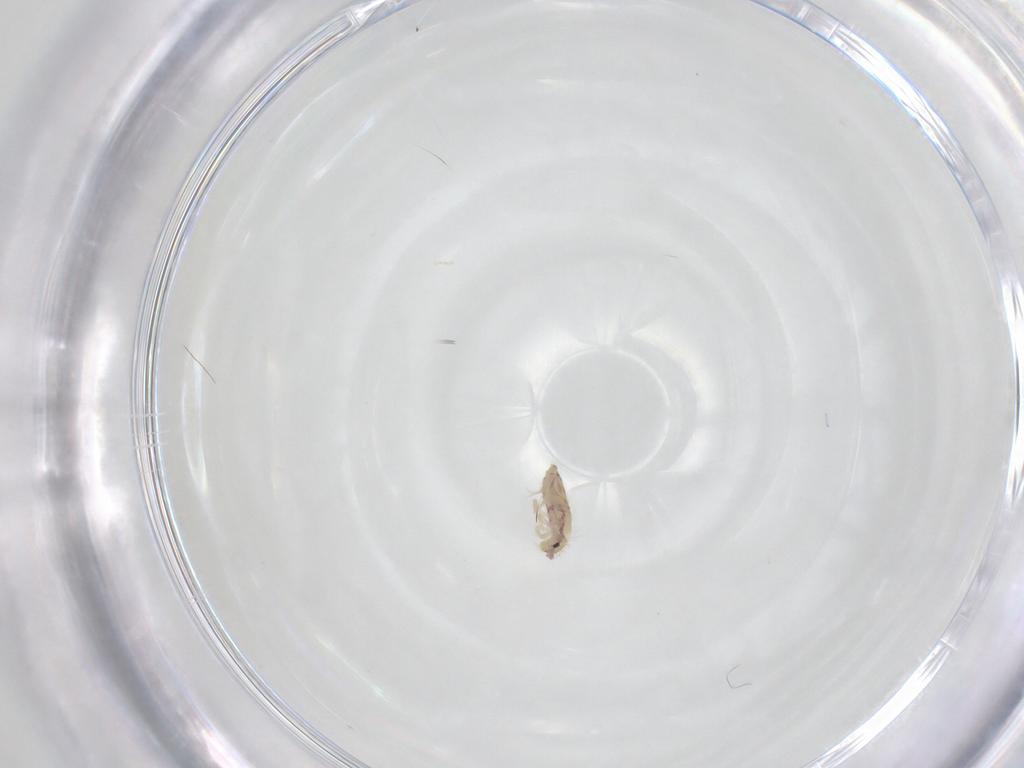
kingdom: Animalia
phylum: Arthropoda
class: Collembola
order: Entomobryomorpha
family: Entomobryidae
